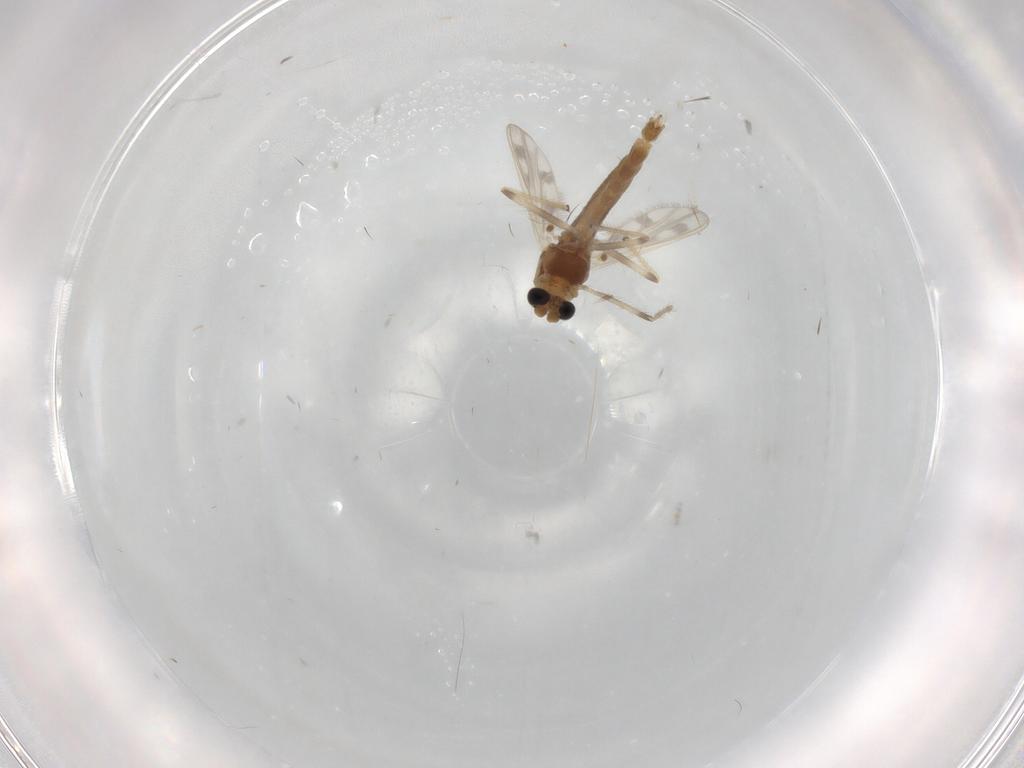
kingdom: Animalia
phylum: Arthropoda
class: Insecta
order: Diptera
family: Sciaridae
